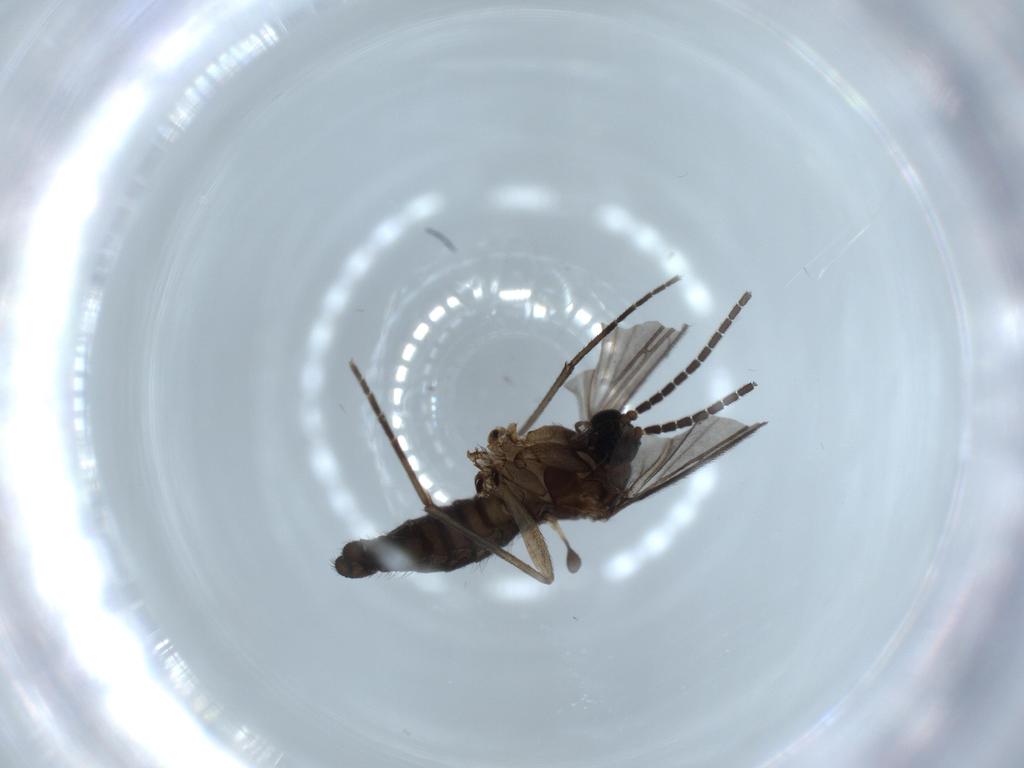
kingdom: Animalia
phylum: Arthropoda
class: Insecta
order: Diptera
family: Sciaridae
